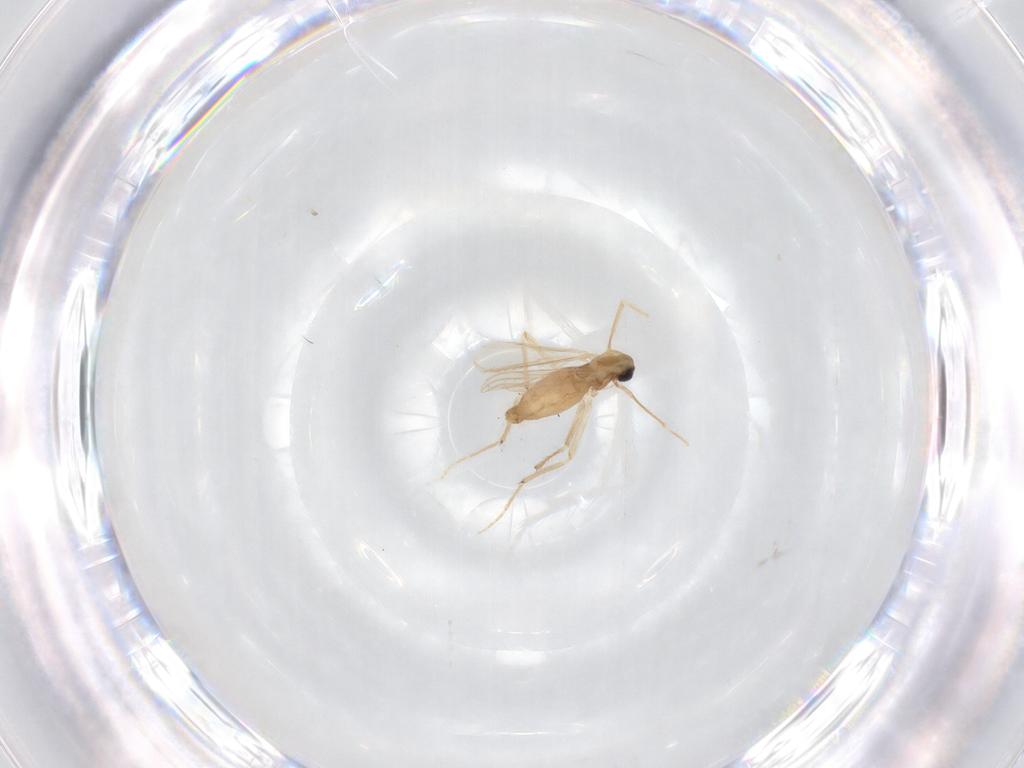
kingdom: Animalia
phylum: Arthropoda
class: Insecta
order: Diptera
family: Chironomidae
